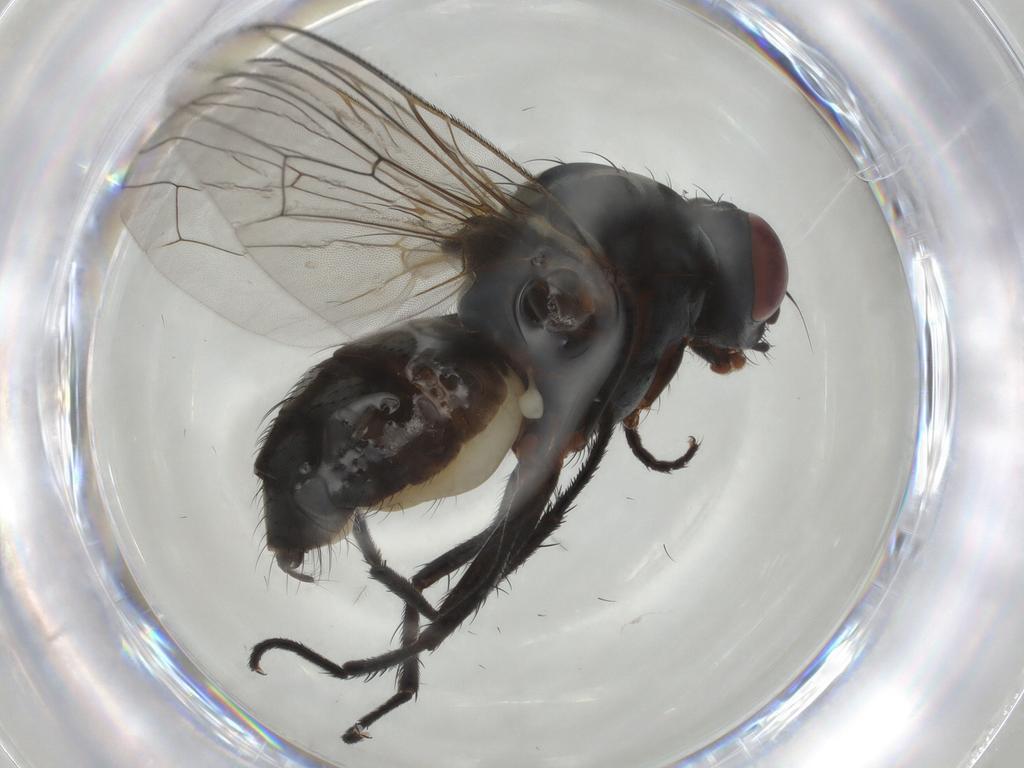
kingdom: Animalia
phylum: Arthropoda
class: Insecta
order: Diptera
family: Anthomyiidae
